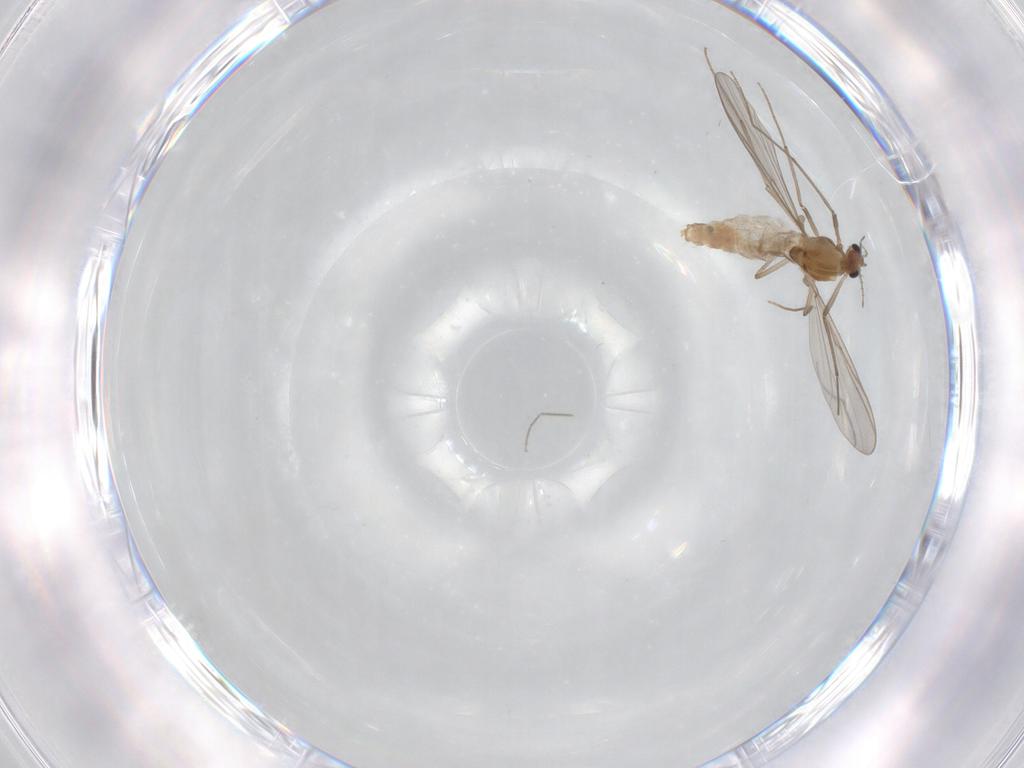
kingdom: Animalia
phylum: Arthropoda
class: Insecta
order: Diptera
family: Chironomidae
